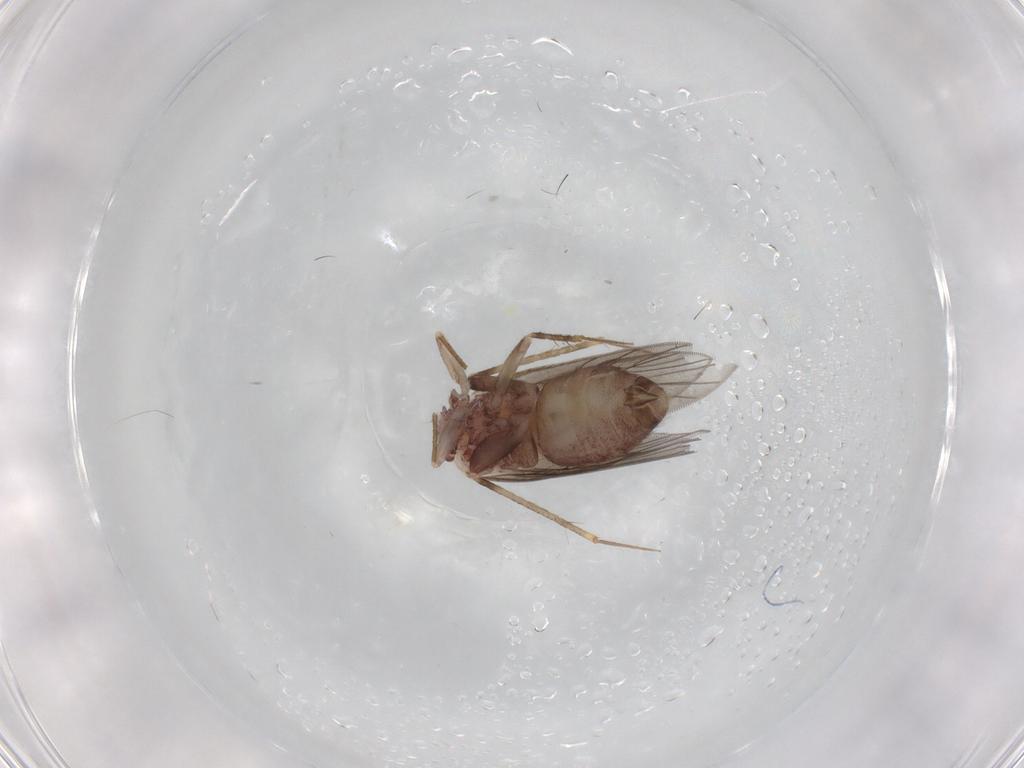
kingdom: Animalia
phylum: Arthropoda
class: Insecta
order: Psocodea
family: Lepidopsocidae
